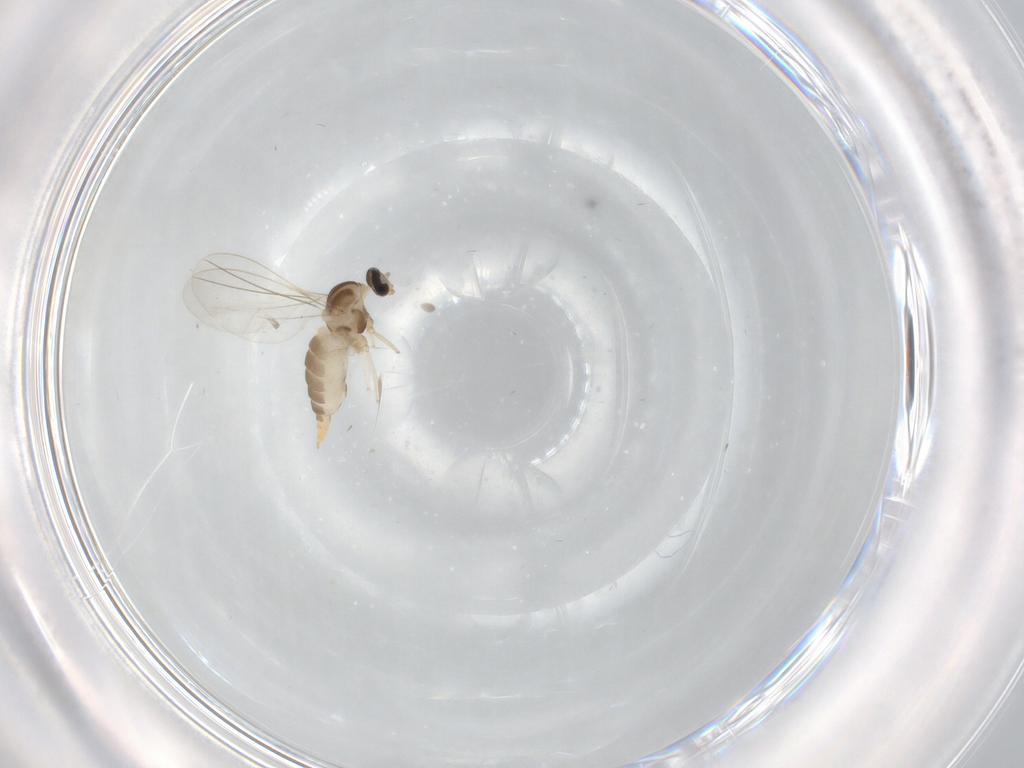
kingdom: Animalia
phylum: Arthropoda
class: Insecta
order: Diptera
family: Cecidomyiidae
